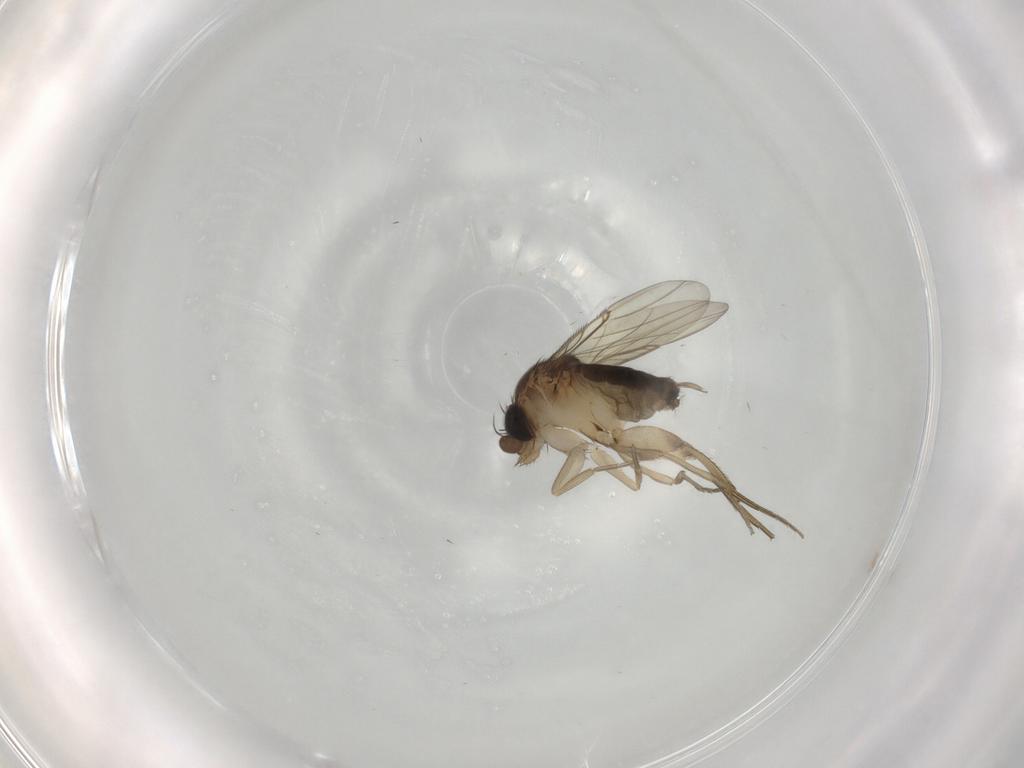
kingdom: Animalia
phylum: Arthropoda
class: Insecta
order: Diptera
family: Phoridae
